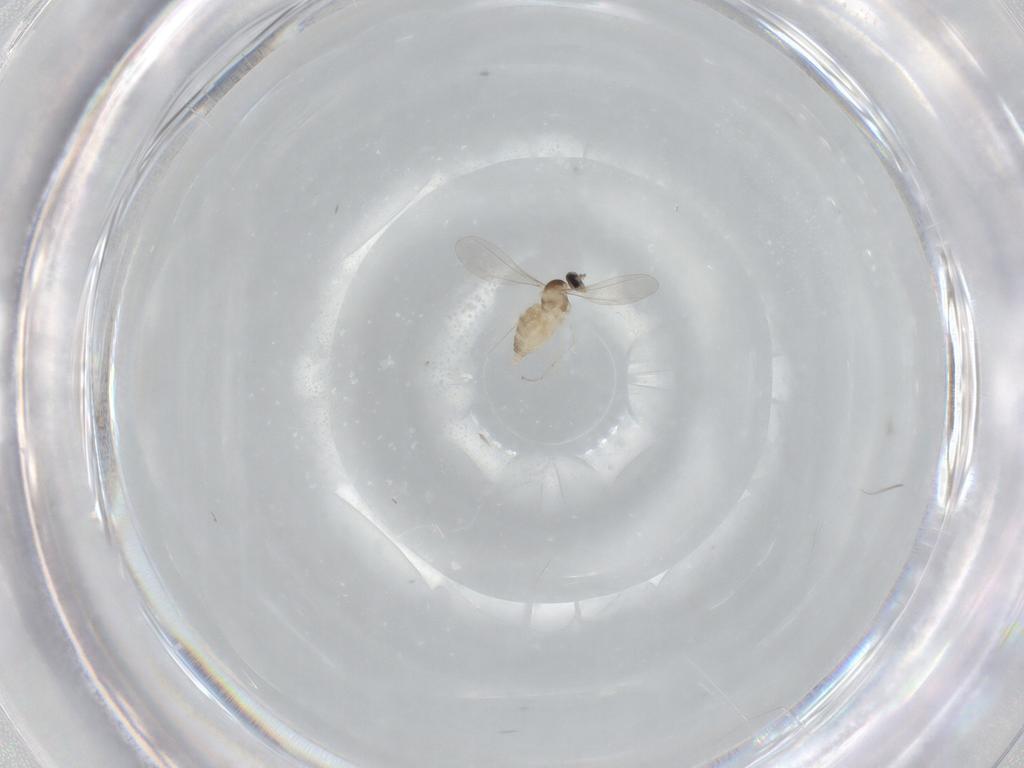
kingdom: Animalia
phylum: Arthropoda
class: Insecta
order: Diptera
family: Cecidomyiidae
